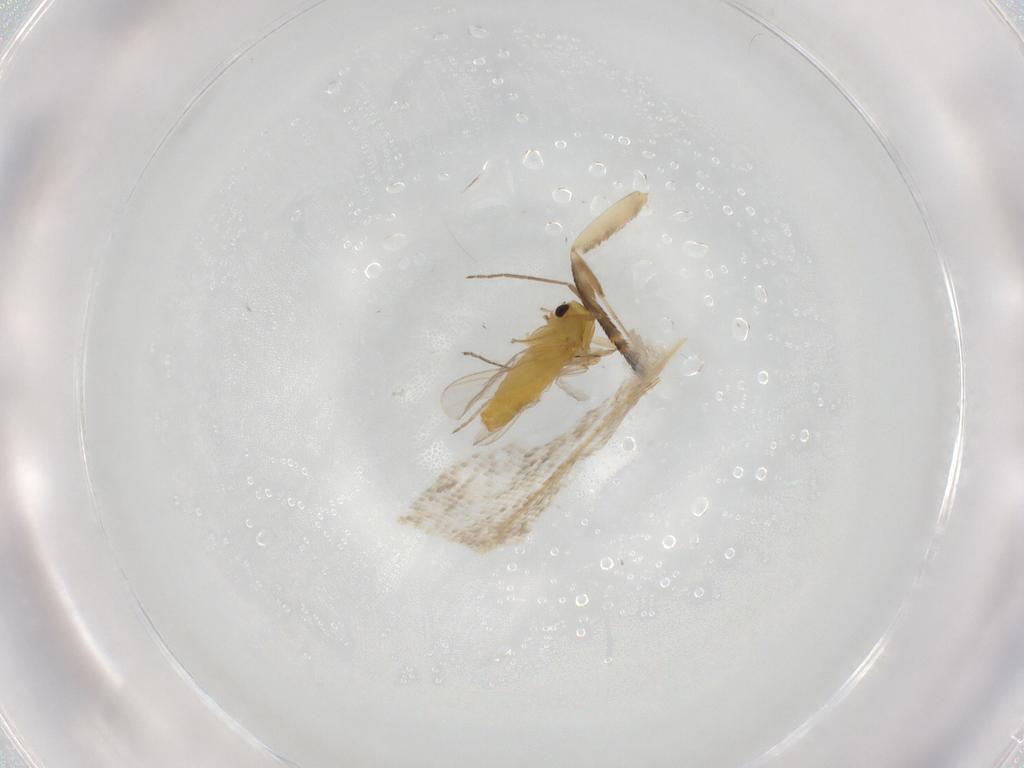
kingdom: Animalia
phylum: Arthropoda
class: Insecta
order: Diptera
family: Chironomidae
